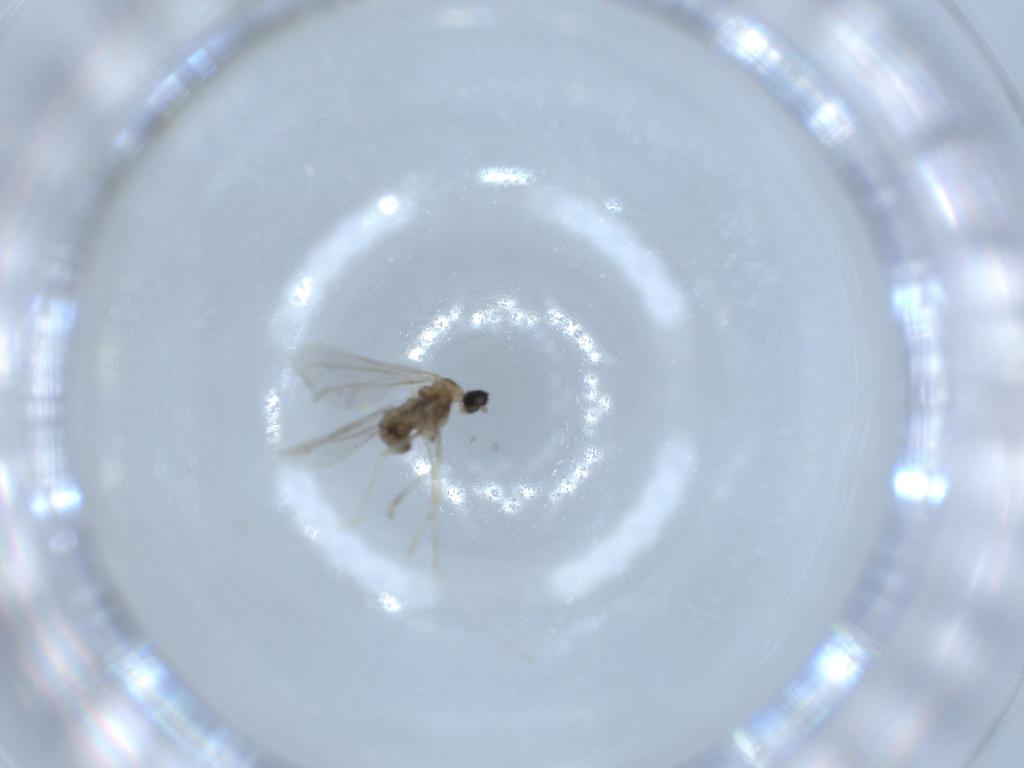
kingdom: Animalia
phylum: Arthropoda
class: Insecta
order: Diptera
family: Cecidomyiidae
